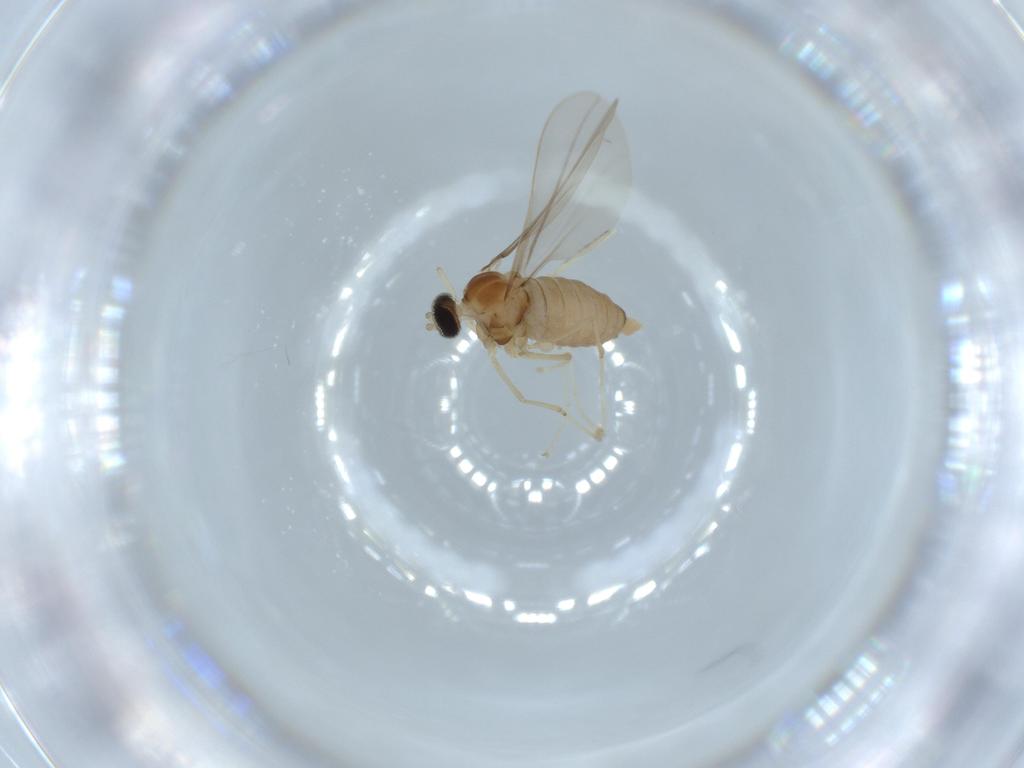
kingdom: Animalia
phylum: Arthropoda
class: Insecta
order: Diptera
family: Cecidomyiidae
